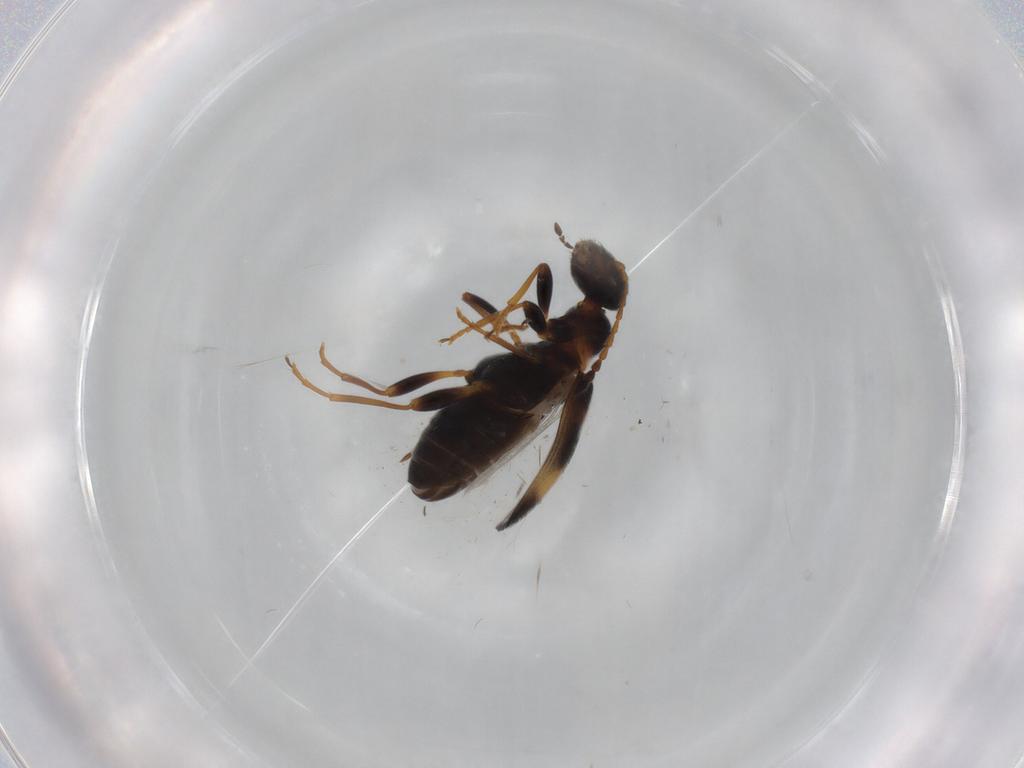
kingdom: Animalia
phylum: Arthropoda
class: Insecta
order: Coleoptera
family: Anthicidae
